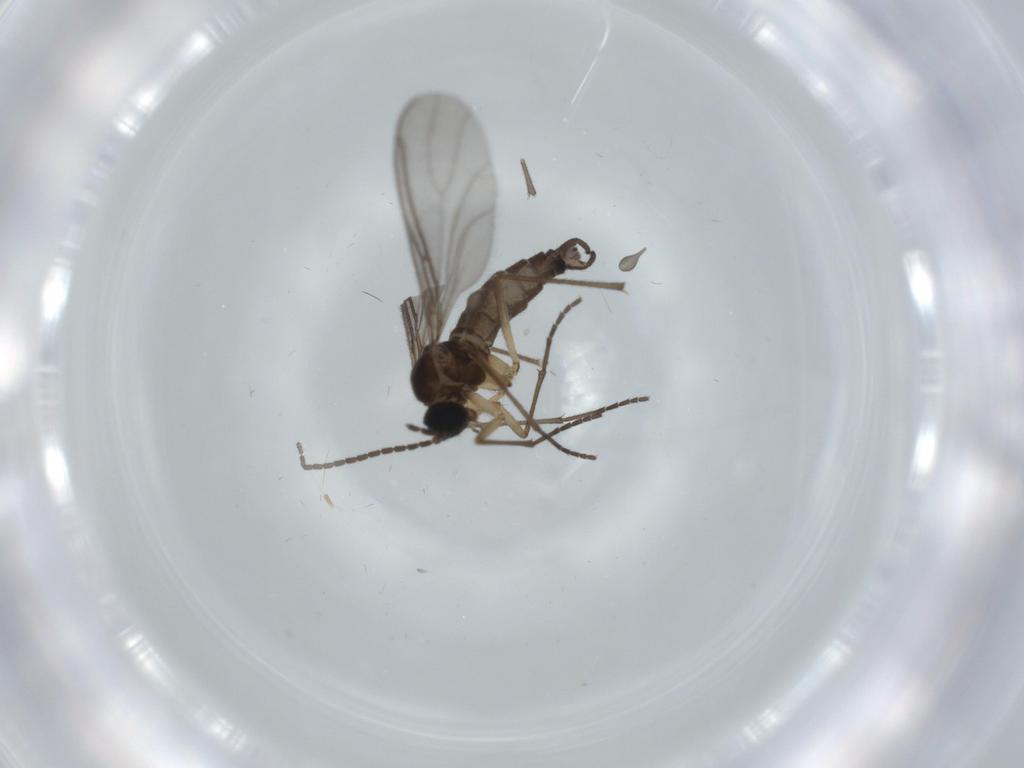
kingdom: Animalia
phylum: Arthropoda
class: Insecta
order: Diptera
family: Sciaridae
